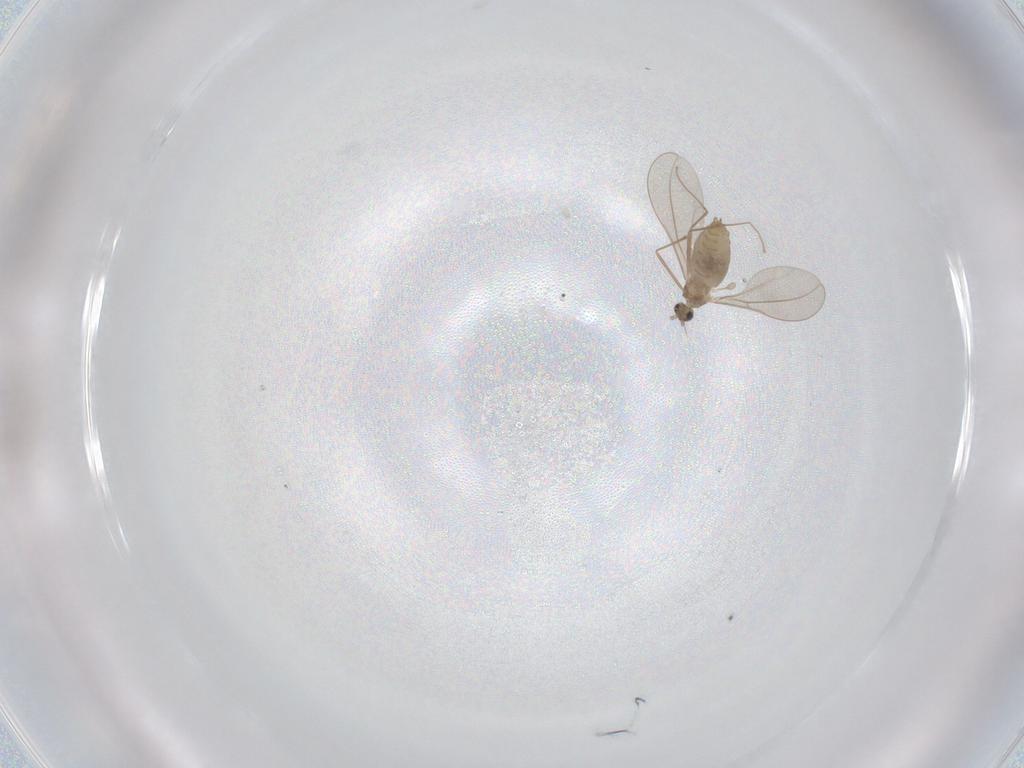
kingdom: Animalia
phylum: Arthropoda
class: Insecta
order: Diptera
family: Cecidomyiidae
